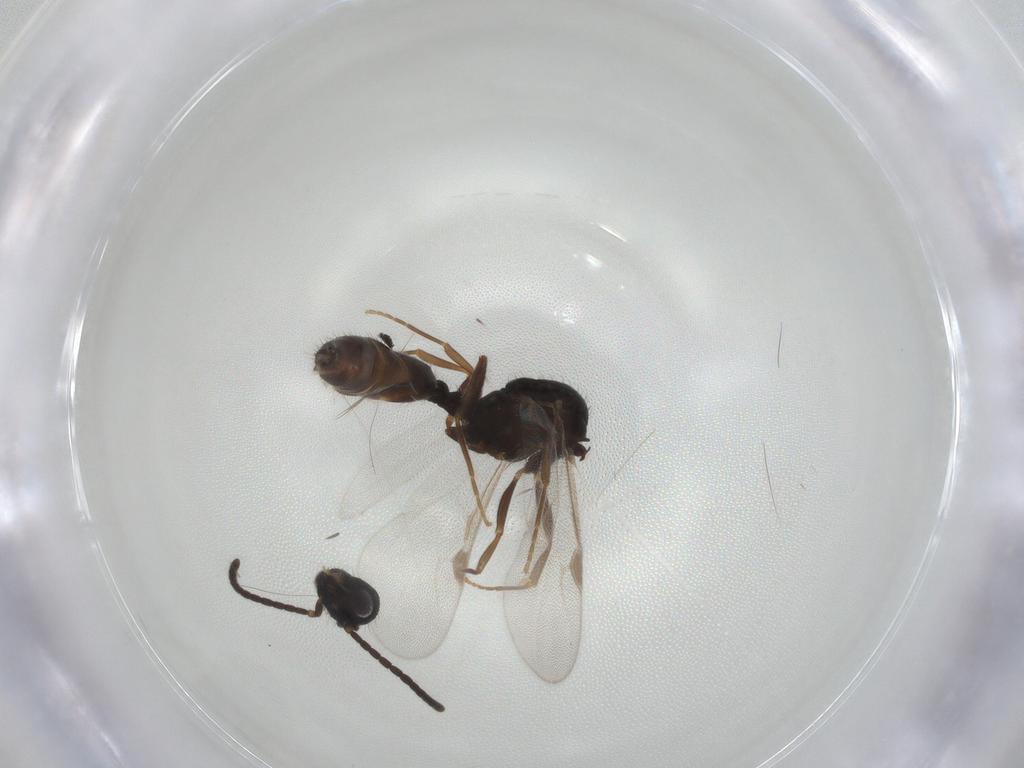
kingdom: Animalia
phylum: Arthropoda
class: Insecta
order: Hymenoptera
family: Formicidae
